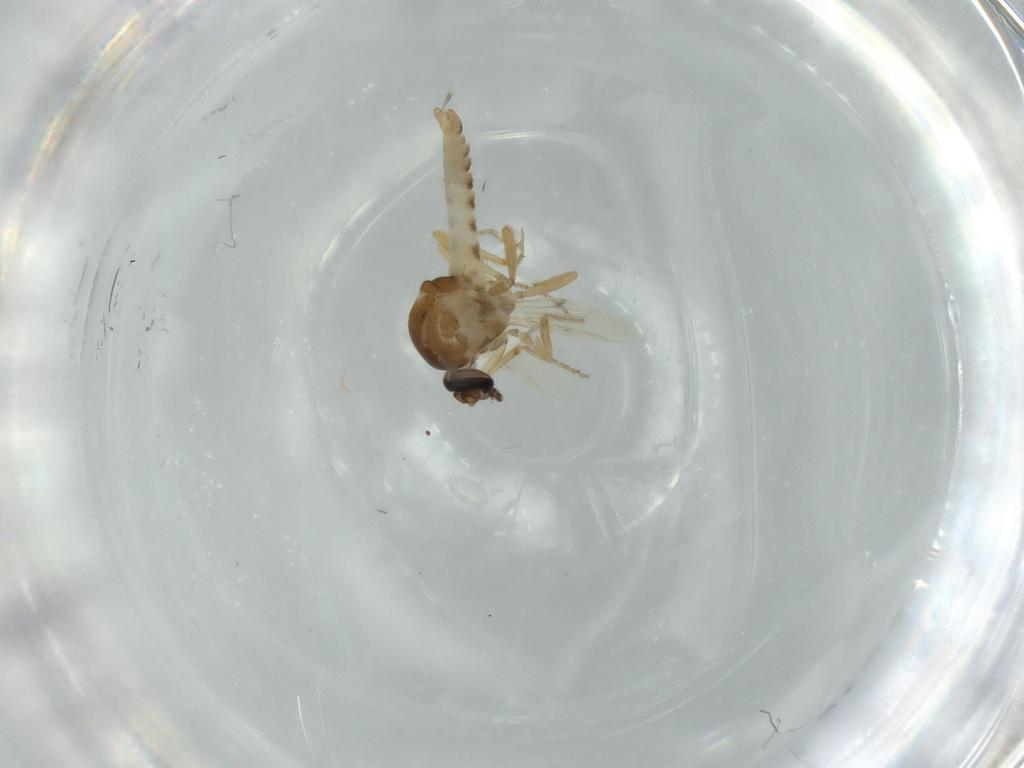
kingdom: Animalia
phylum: Arthropoda
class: Insecta
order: Diptera
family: Ceratopogonidae
